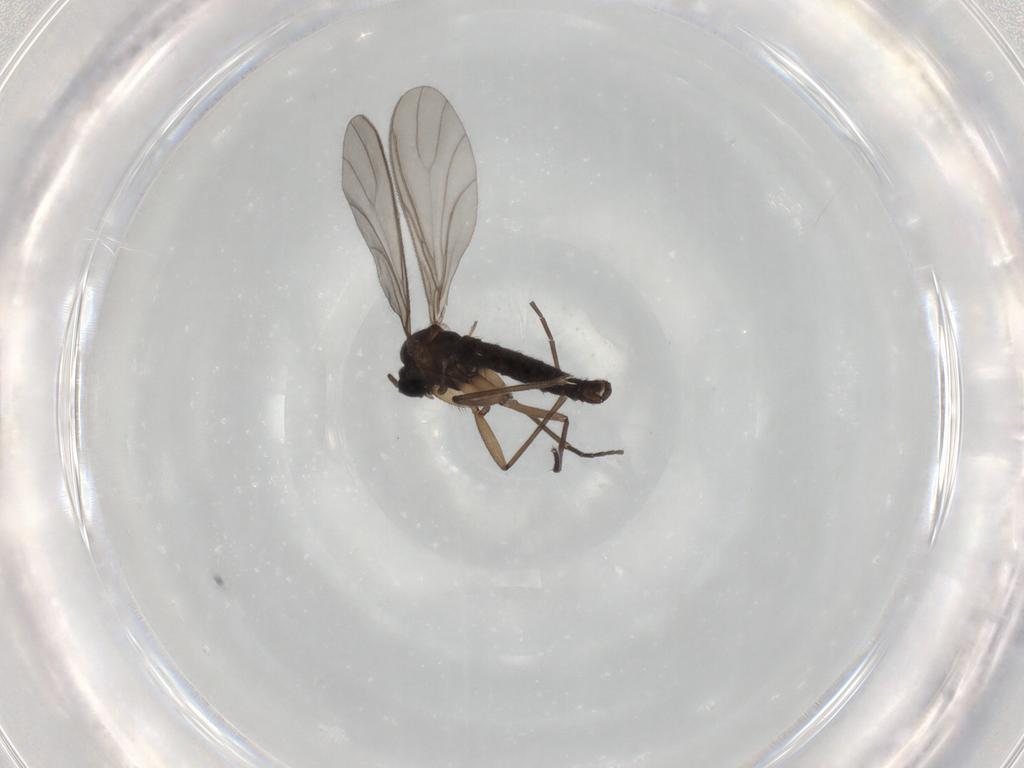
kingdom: Animalia
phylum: Arthropoda
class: Insecta
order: Diptera
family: Sciaridae
